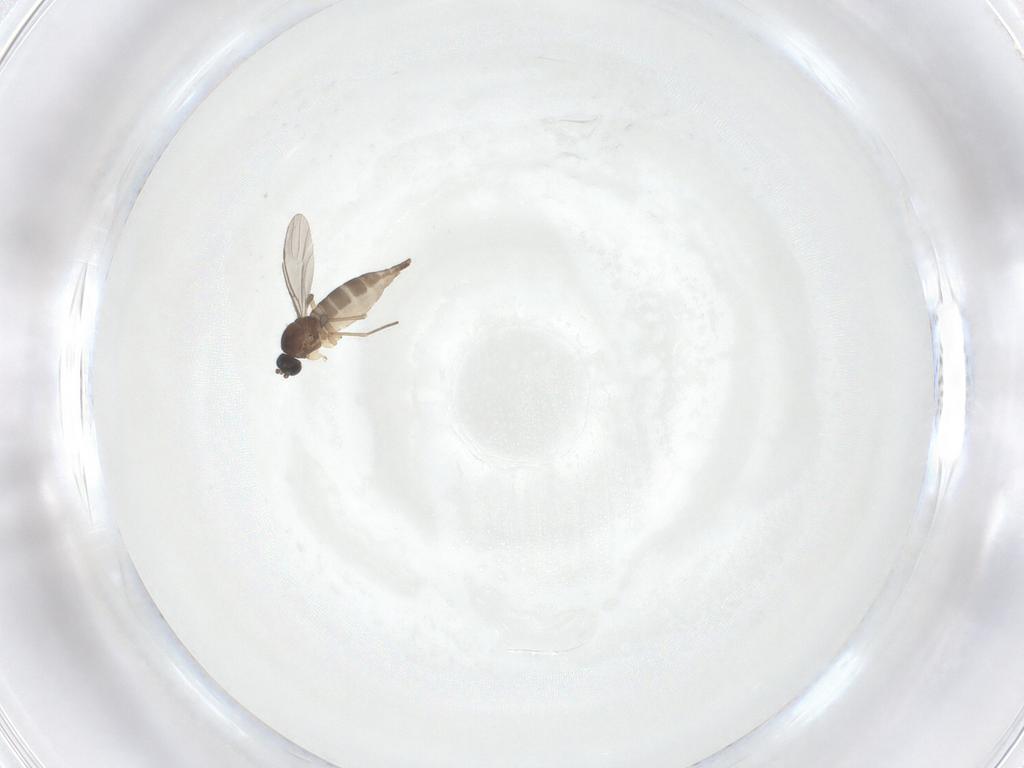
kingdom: Animalia
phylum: Arthropoda
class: Insecta
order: Diptera
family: Sciaridae
